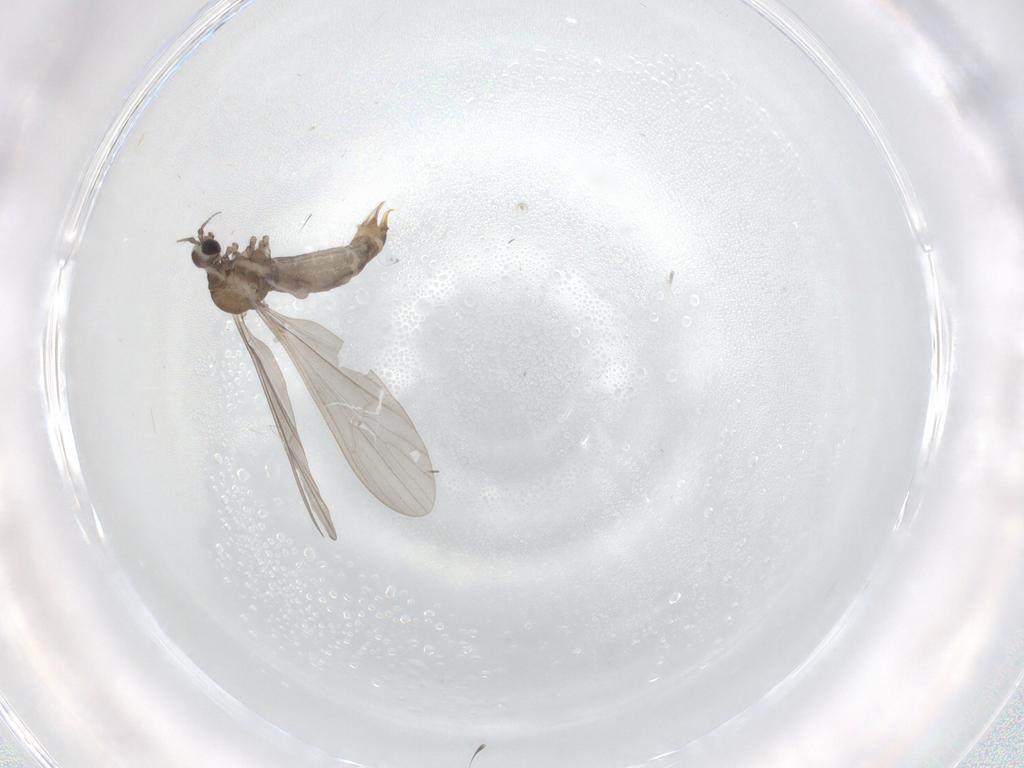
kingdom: Animalia
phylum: Arthropoda
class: Insecta
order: Diptera
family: Limoniidae
